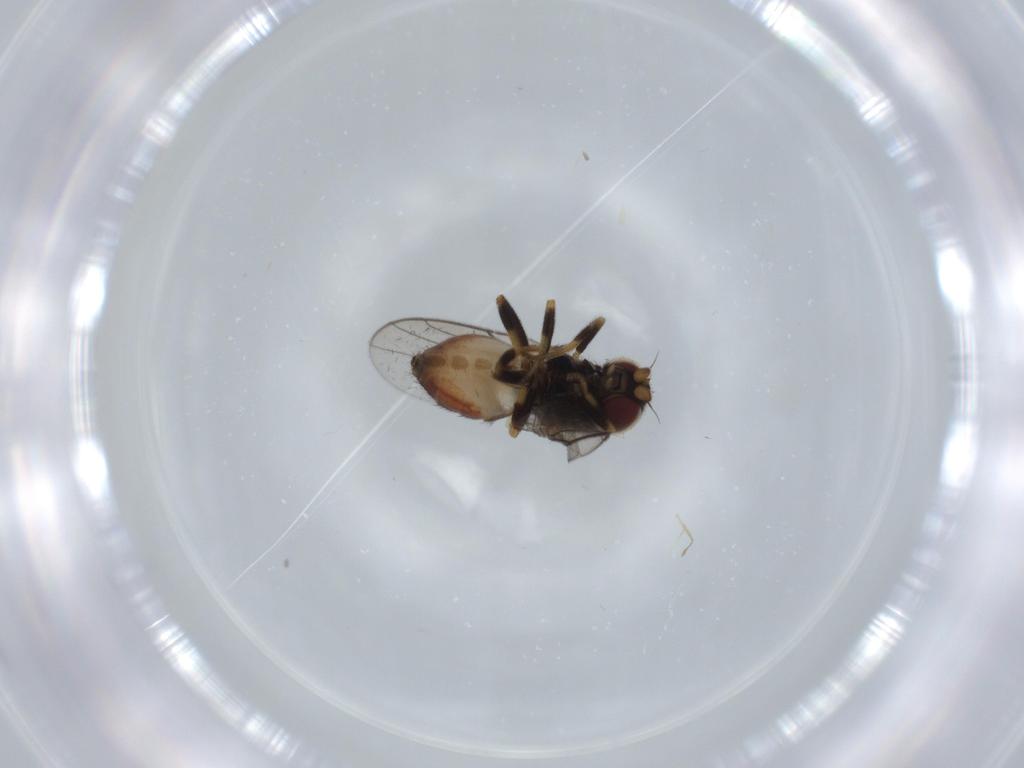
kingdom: Animalia
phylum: Arthropoda
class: Insecta
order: Diptera
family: Chloropidae
